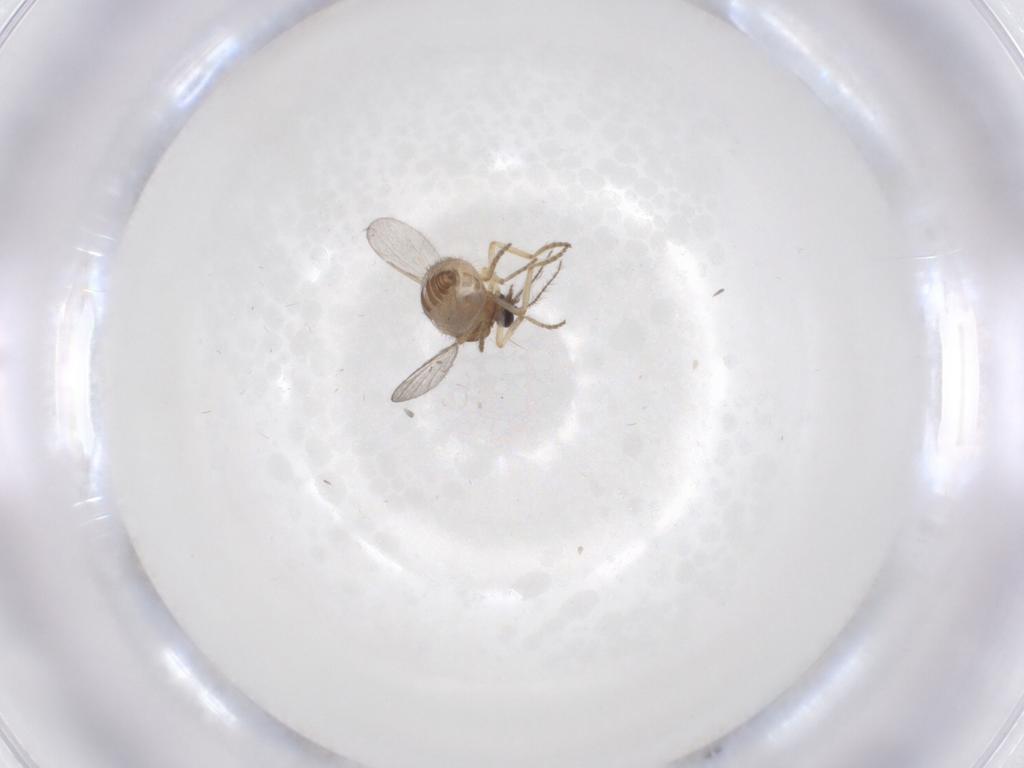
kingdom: Animalia
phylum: Arthropoda
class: Insecta
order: Diptera
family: Ceratopogonidae
